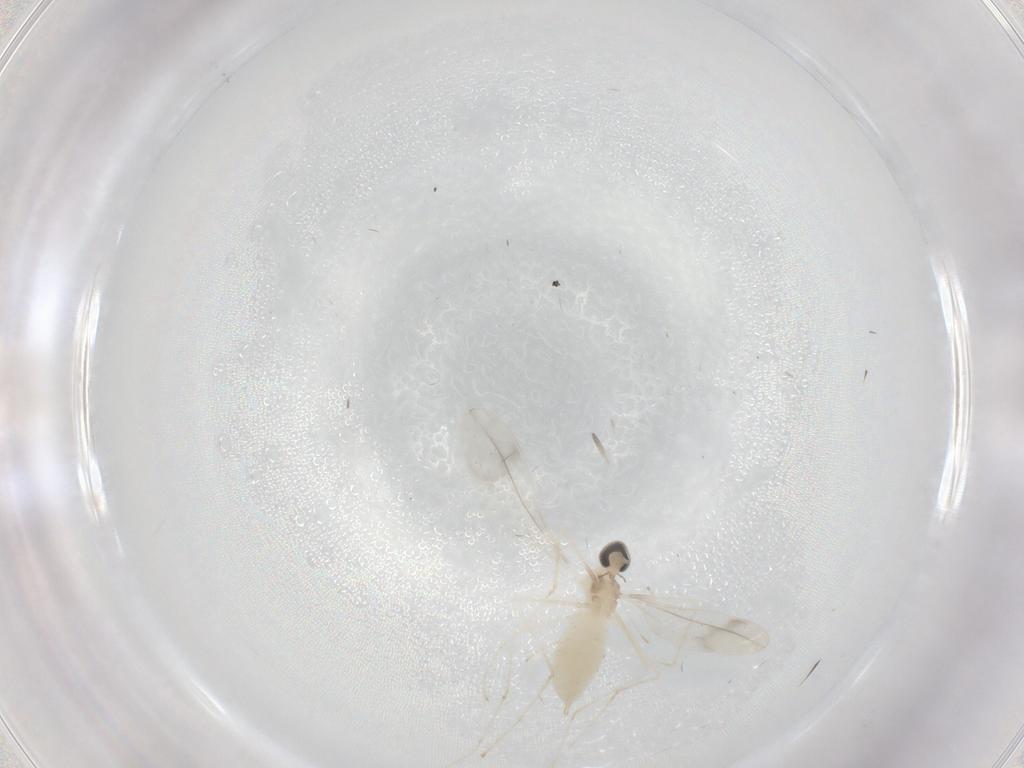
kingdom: Animalia
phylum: Arthropoda
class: Insecta
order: Diptera
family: Cecidomyiidae
